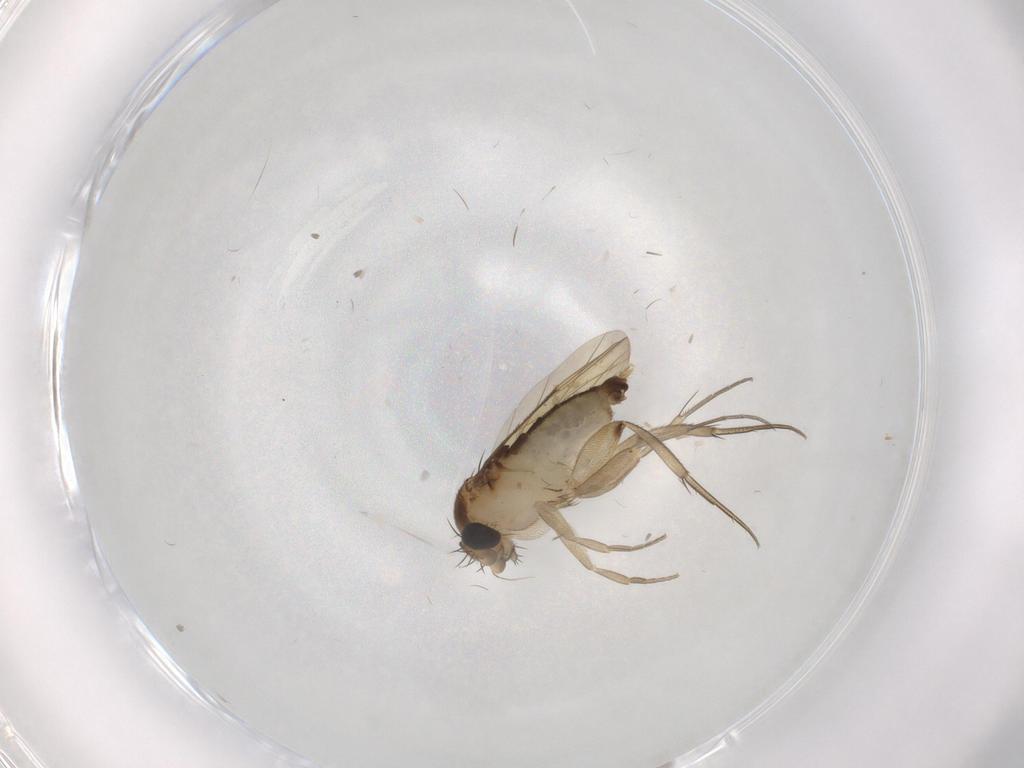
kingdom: Animalia
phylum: Arthropoda
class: Insecta
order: Diptera
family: Phoridae
